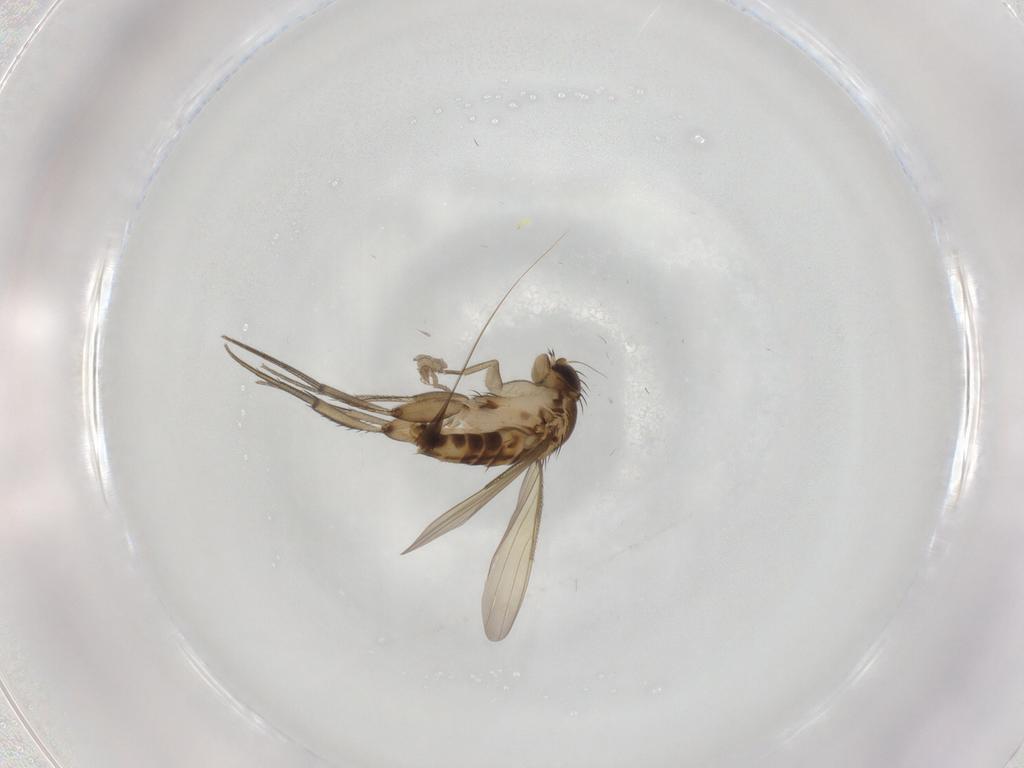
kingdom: Animalia
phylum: Arthropoda
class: Insecta
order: Diptera
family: Phoridae
